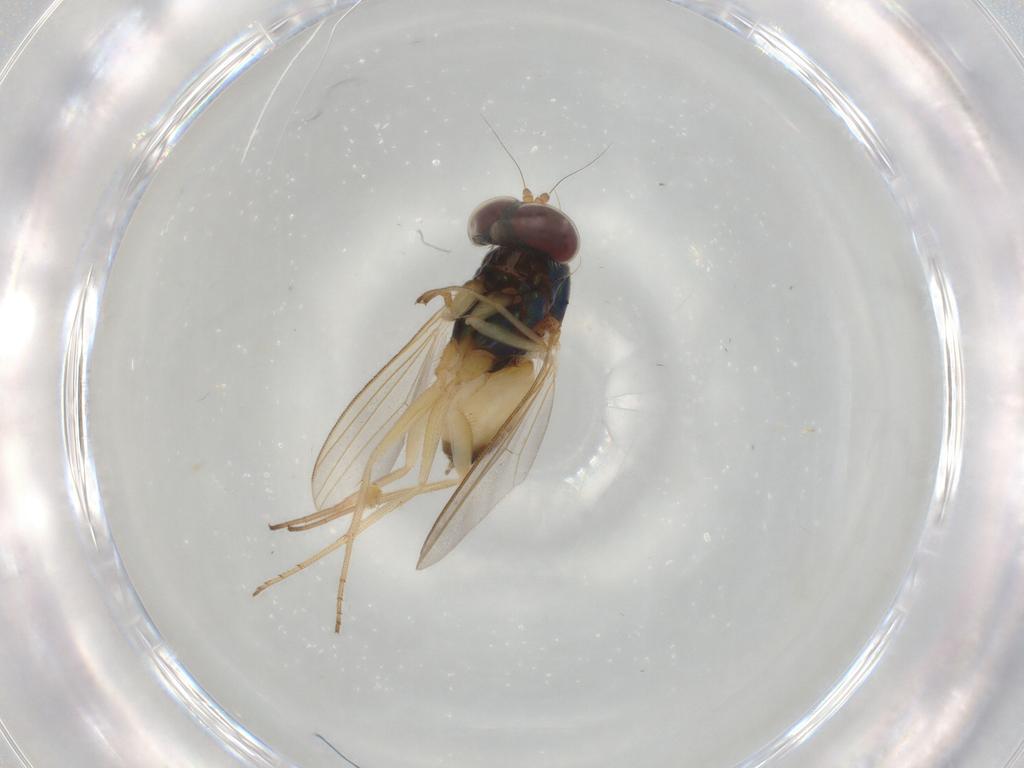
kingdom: Animalia
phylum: Arthropoda
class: Insecta
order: Diptera
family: Dolichopodidae
